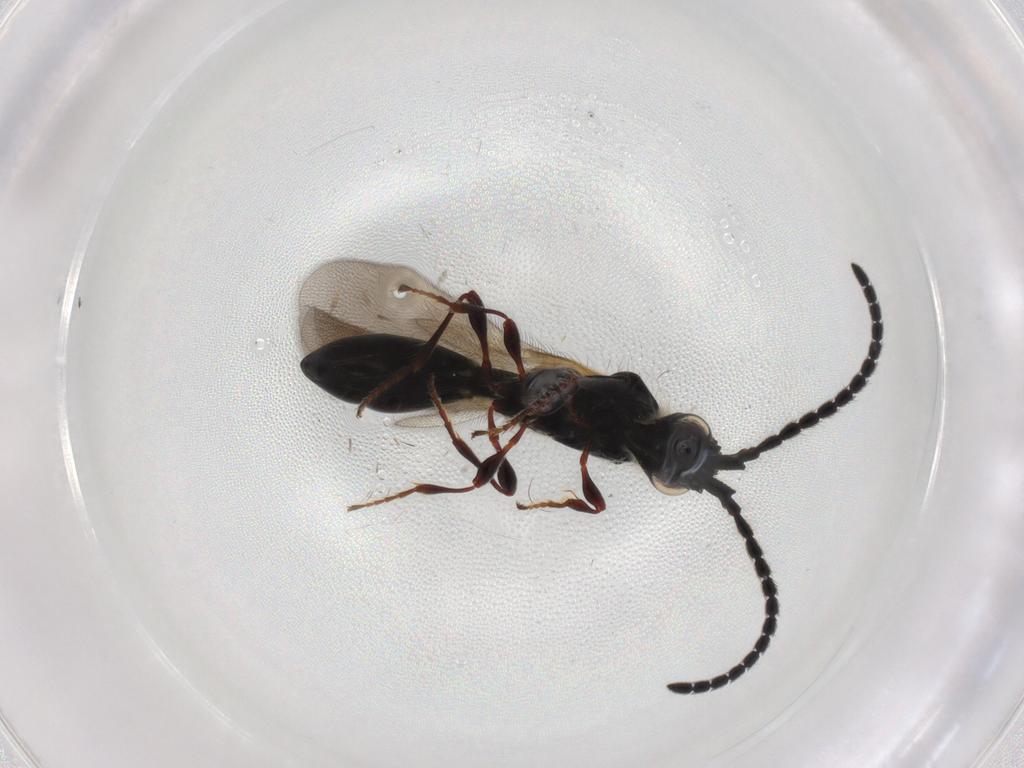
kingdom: Animalia
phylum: Arthropoda
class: Insecta
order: Hymenoptera
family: Diapriidae
